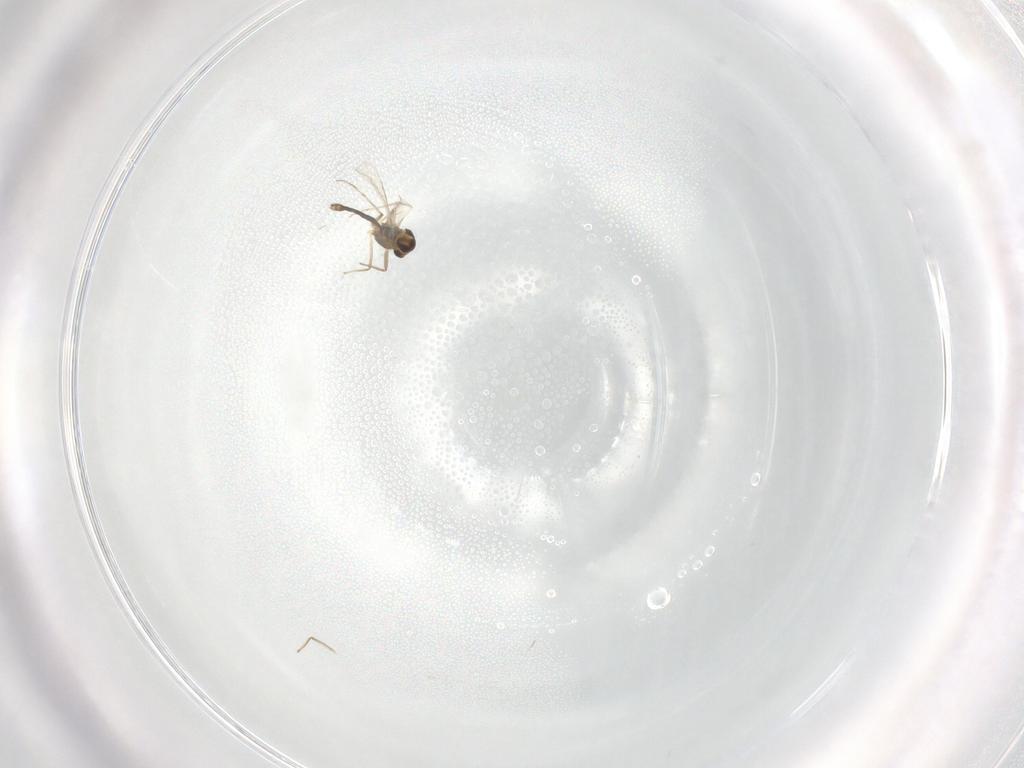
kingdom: Animalia
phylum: Arthropoda
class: Insecta
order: Diptera
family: Chironomidae
